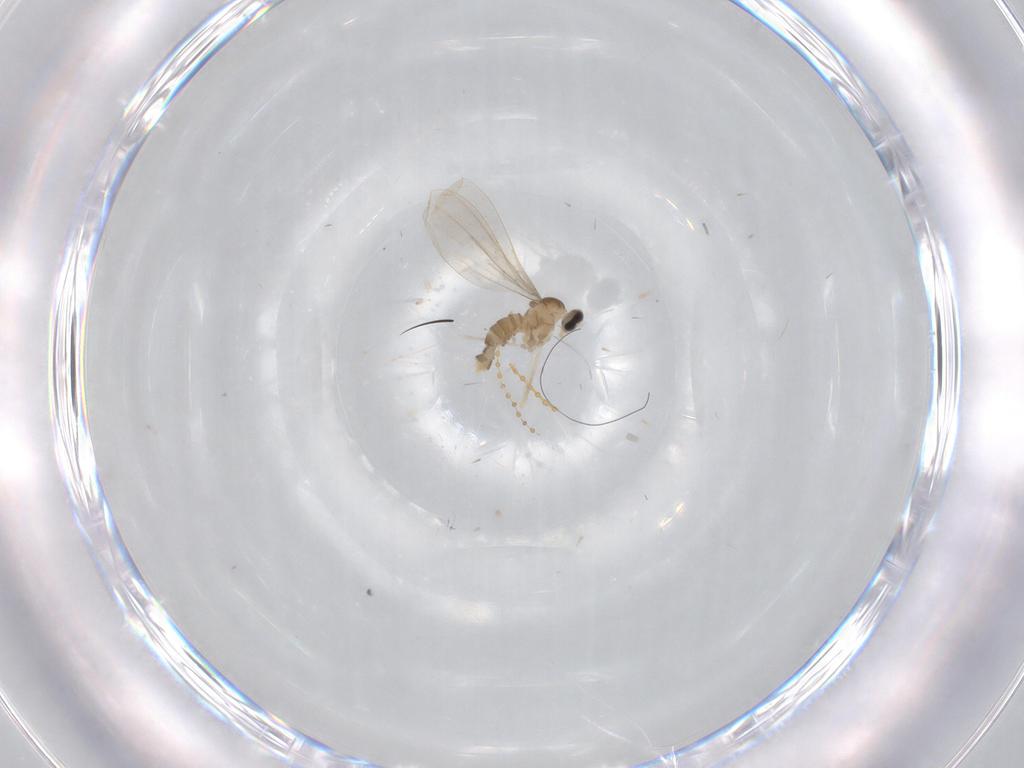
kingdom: Animalia
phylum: Arthropoda
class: Insecta
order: Diptera
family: Cecidomyiidae
